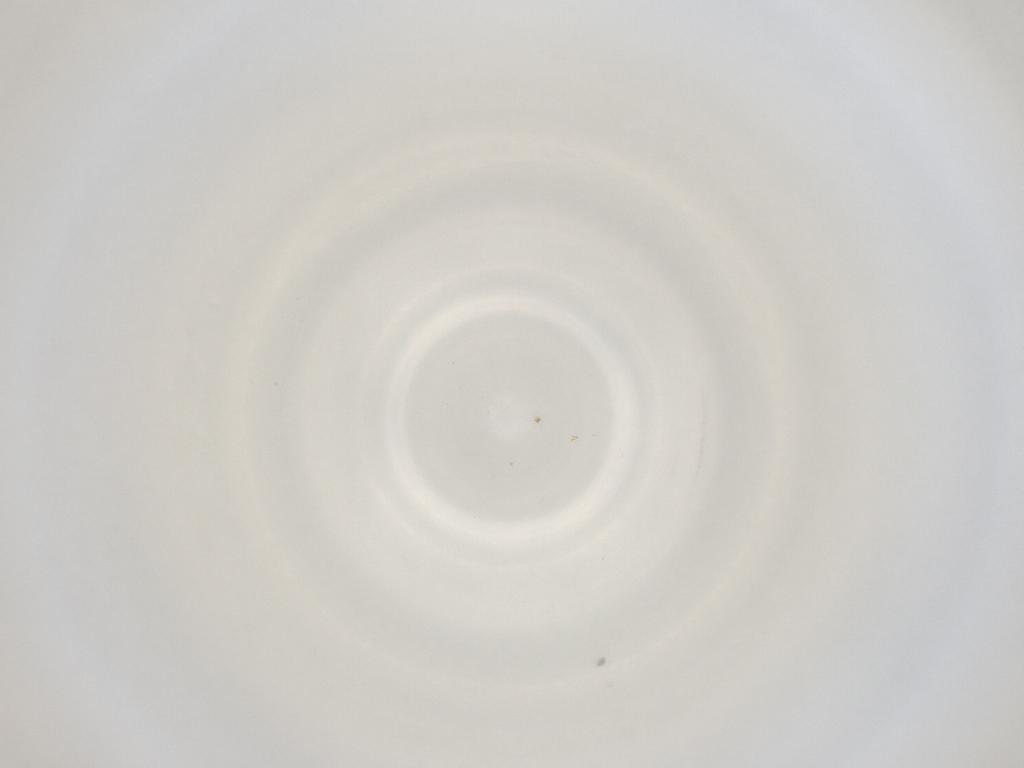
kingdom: Animalia
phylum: Arthropoda
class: Insecta
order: Diptera
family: Cecidomyiidae
